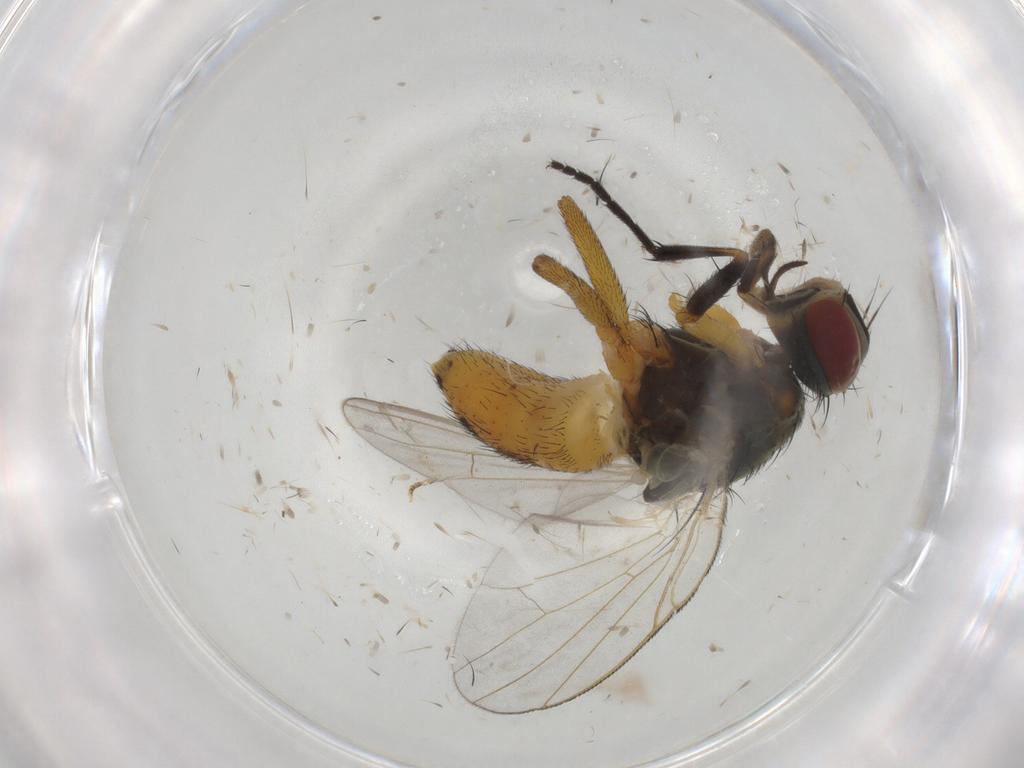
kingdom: Animalia
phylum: Arthropoda
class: Insecta
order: Diptera
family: Muscidae
